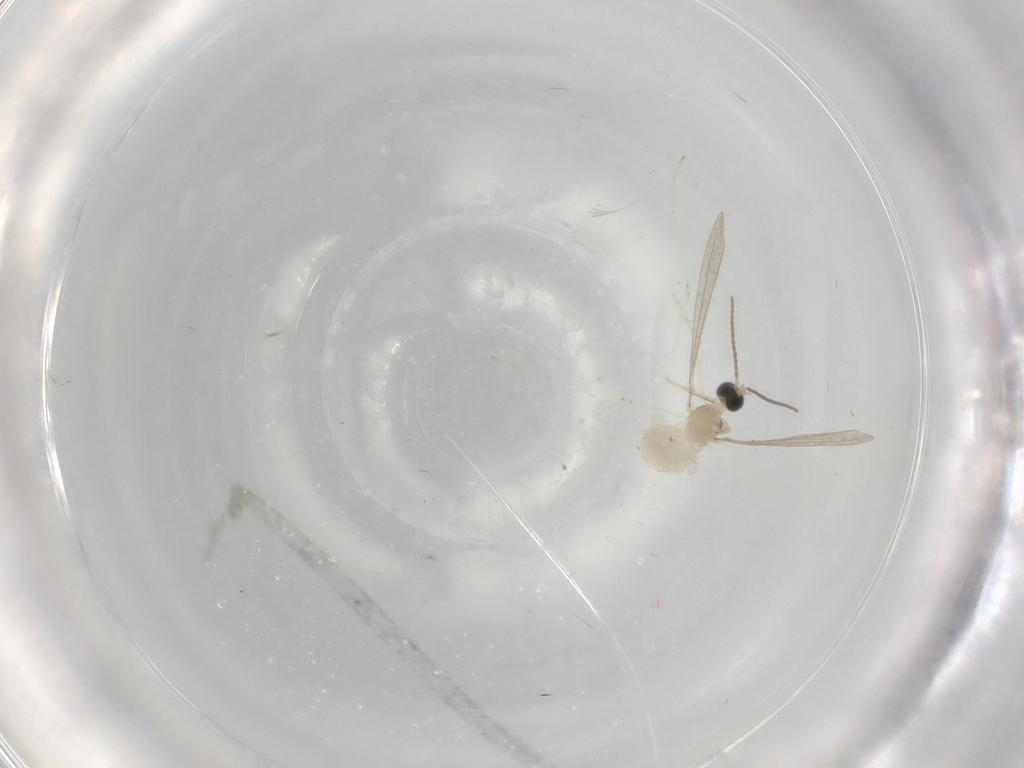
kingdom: Animalia
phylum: Arthropoda
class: Insecta
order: Diptera
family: Cecidomyiidae
